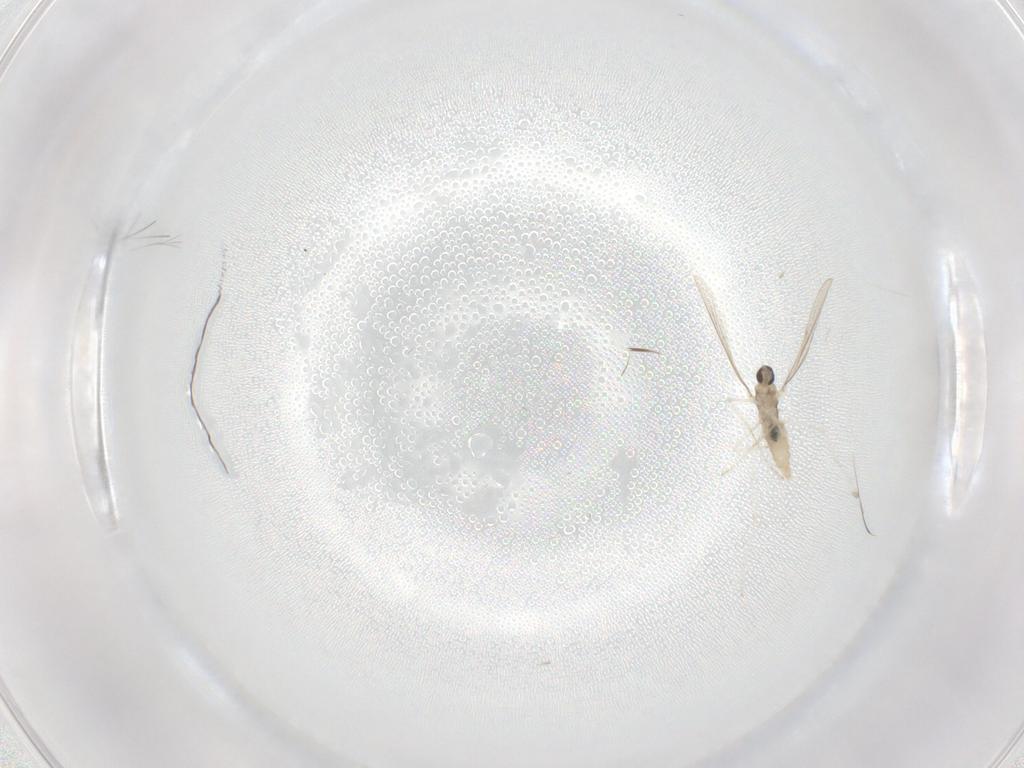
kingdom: Animalia
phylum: Arthropoda
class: Insecta
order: Diptera
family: Cecidomyiidae
